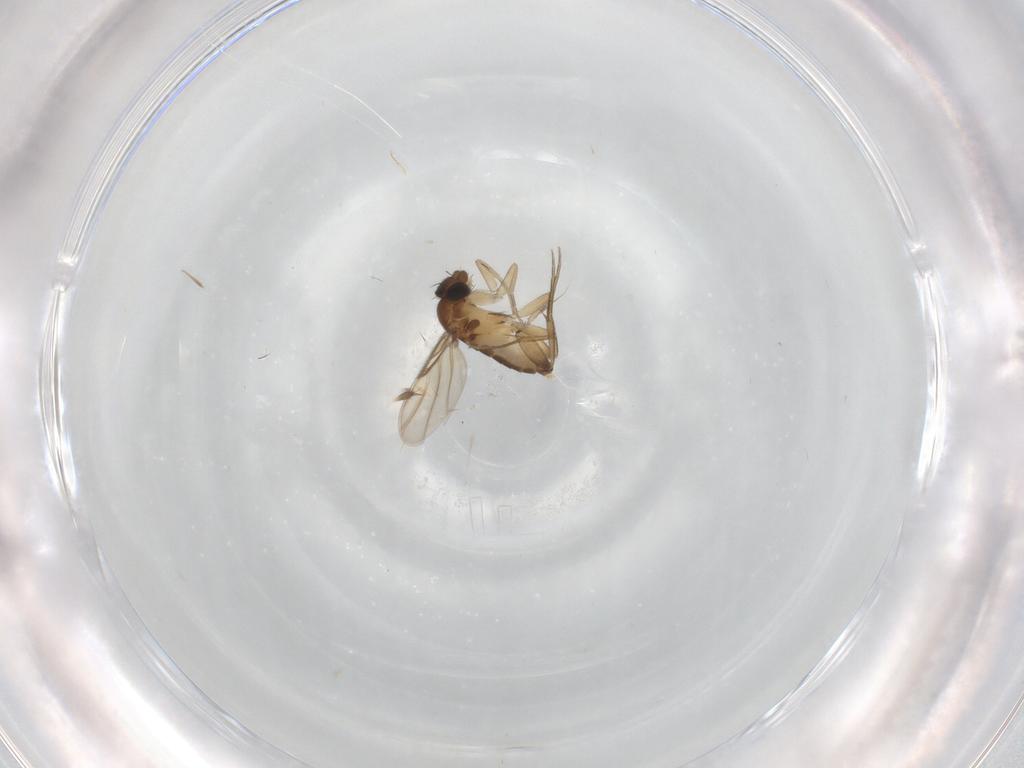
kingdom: Animalia
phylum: Arthropoda
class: Insecta
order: Diptera
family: Phoridae
